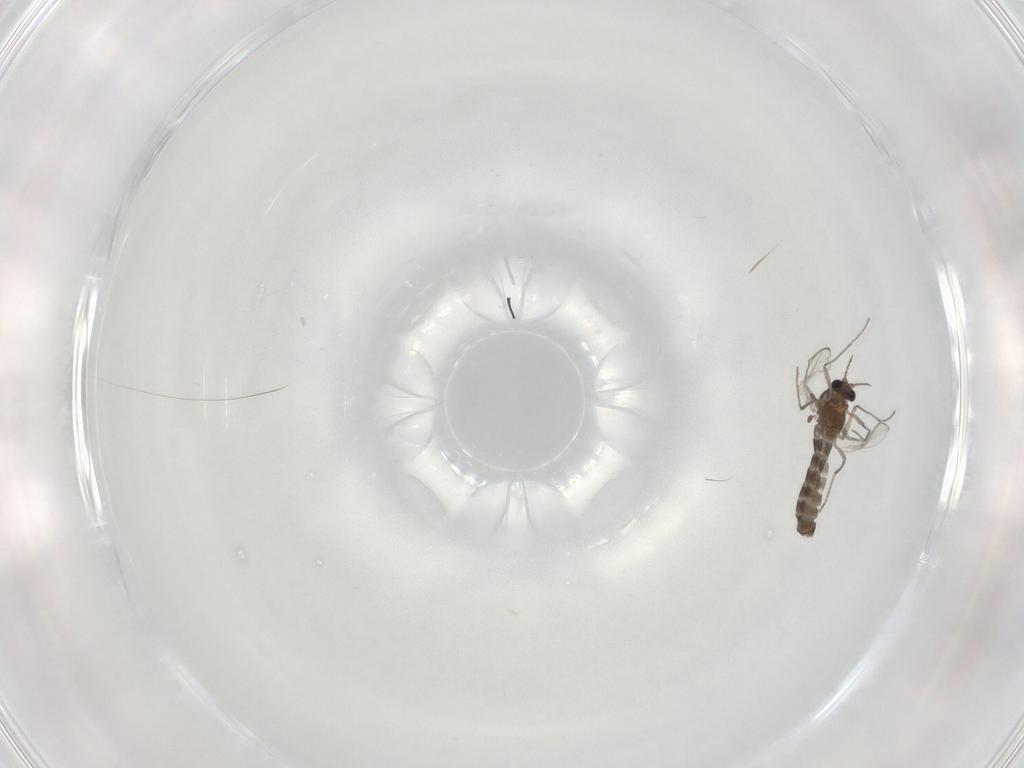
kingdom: Animalia
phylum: Arthropoda
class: Insecta
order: Diptera
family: Chironomidae
